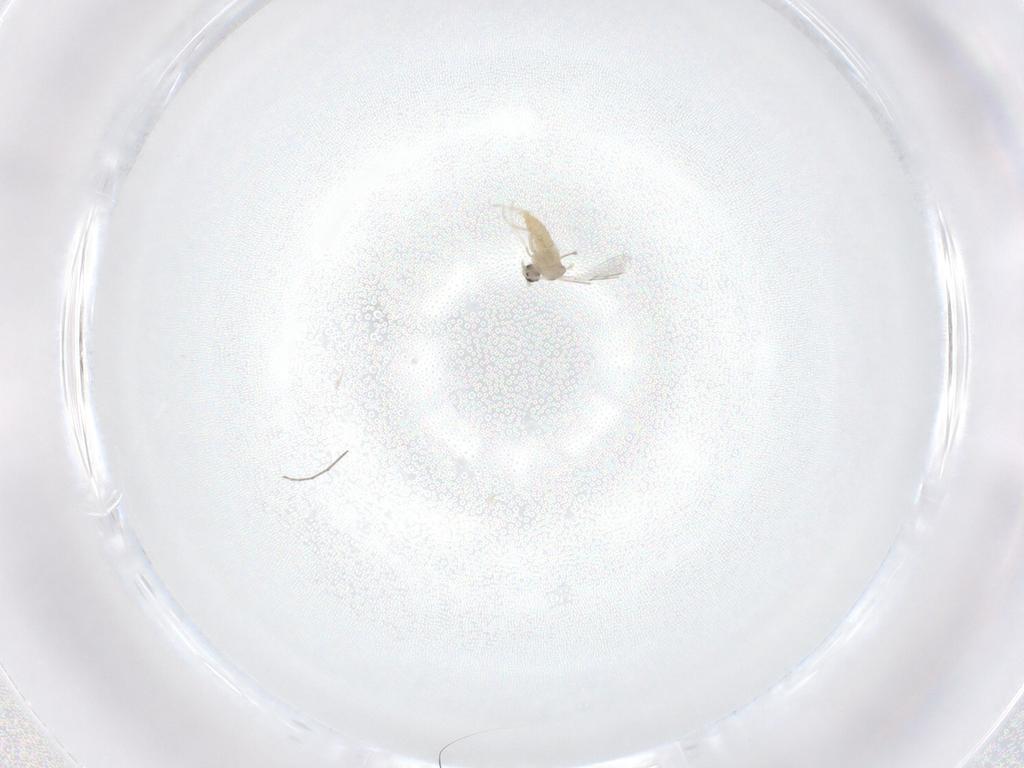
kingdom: Animalia
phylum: Arthropoda
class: Insecta
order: Diptera
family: Cecidomyiidae
